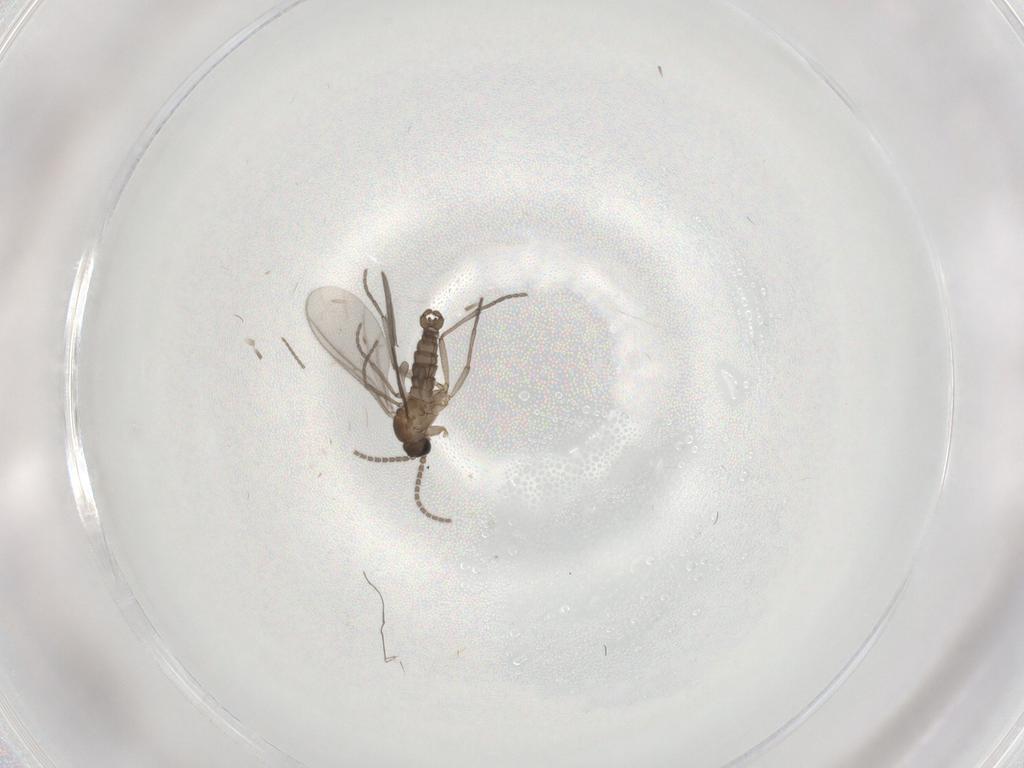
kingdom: Animalia
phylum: Arthropoda
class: Insecta
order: Diptera
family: Sciaridae
